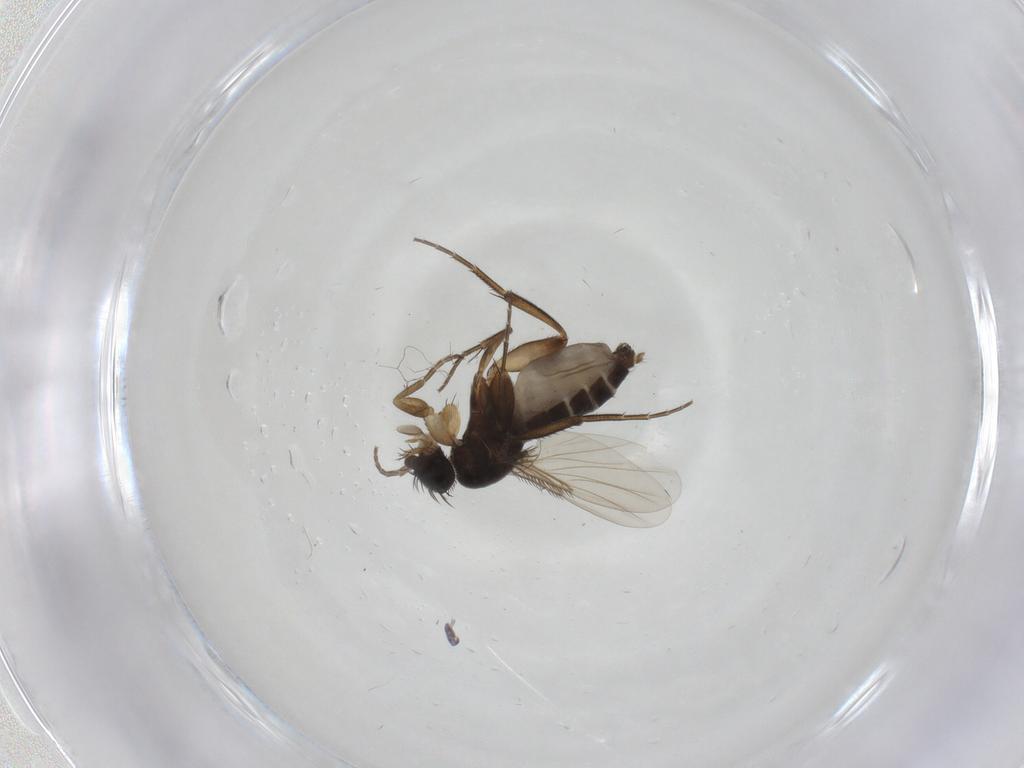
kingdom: Animalia
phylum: Arthropoda
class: Insecta
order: Diptera
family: Phoridae
